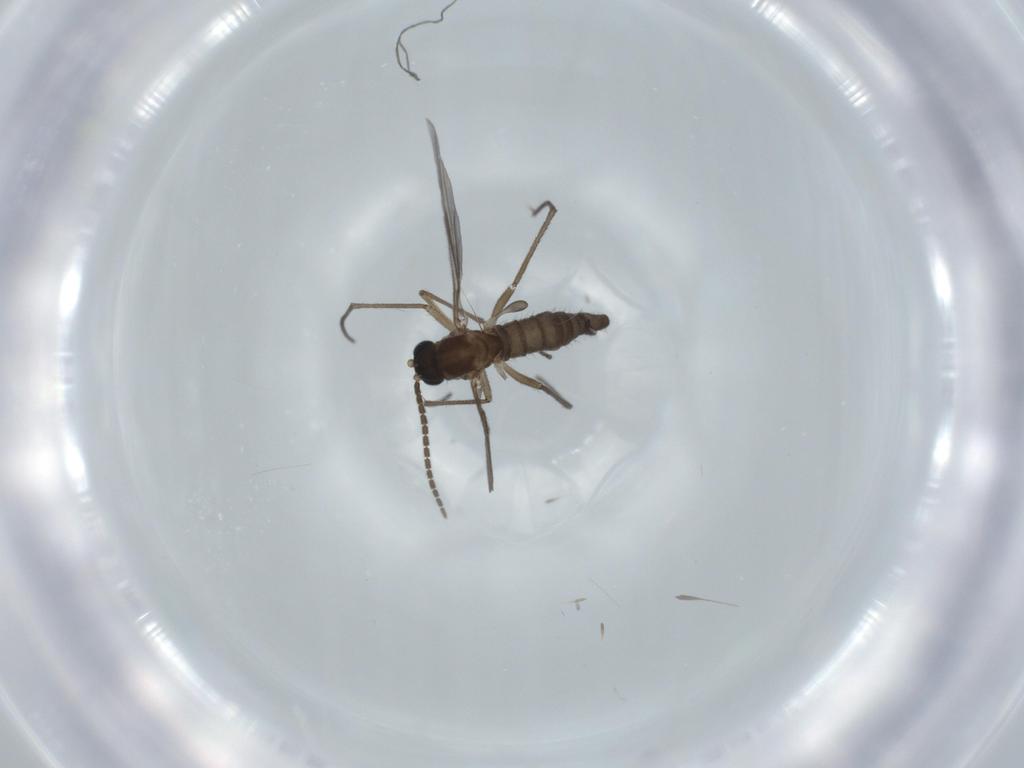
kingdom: Animalia
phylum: Arthropoda
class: Insecta
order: Diptera
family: Sciaridae
